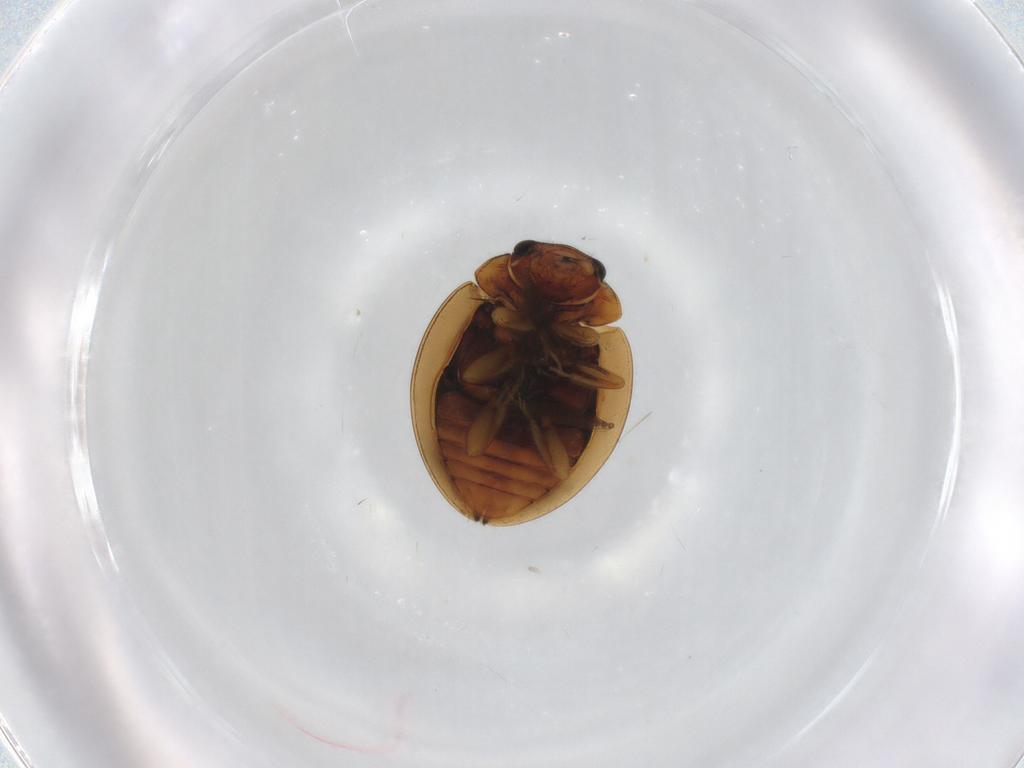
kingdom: Animalia
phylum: Arthropoda
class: Insecta
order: Coleoptera
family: Coccinellidae
